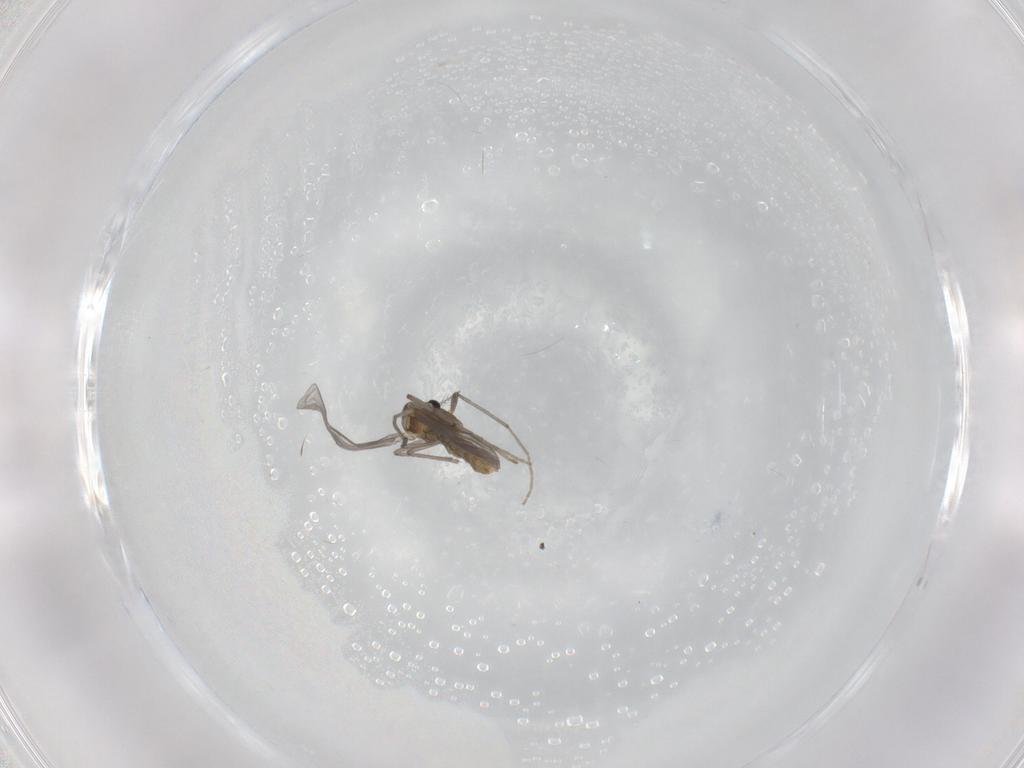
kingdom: Animalia
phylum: Arthropoda
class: Insecta
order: Diptera
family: Chironomidae
